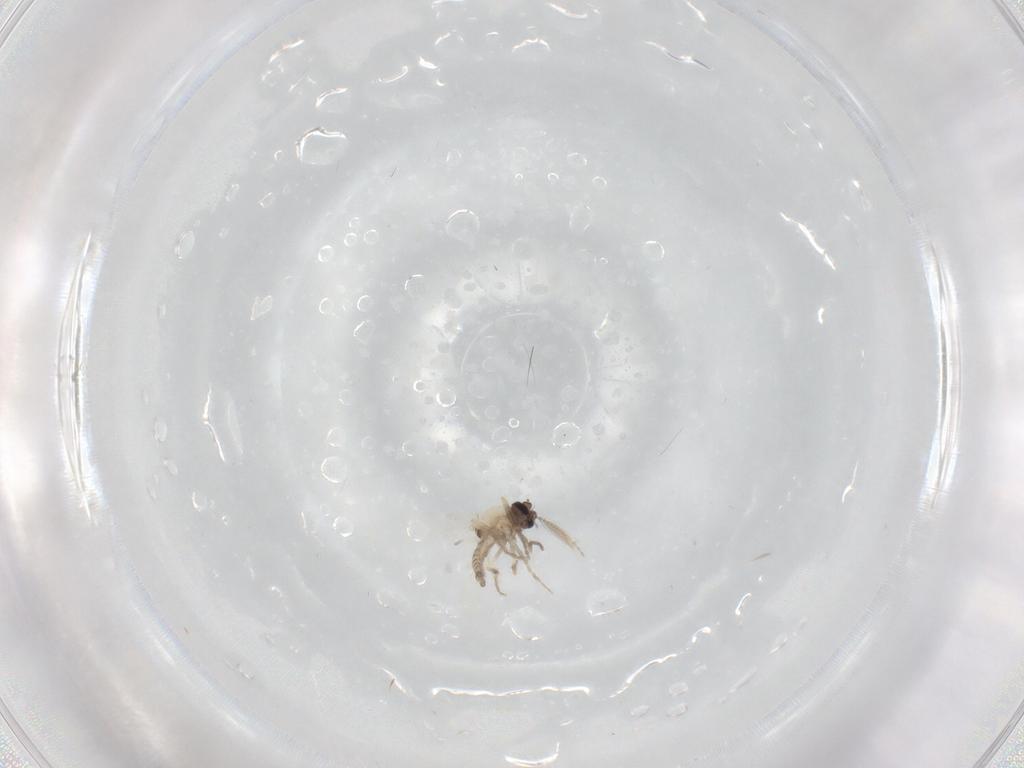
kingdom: Animalia
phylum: Arthropoda
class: Insecta
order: Diptera
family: Ceratopogonidae
